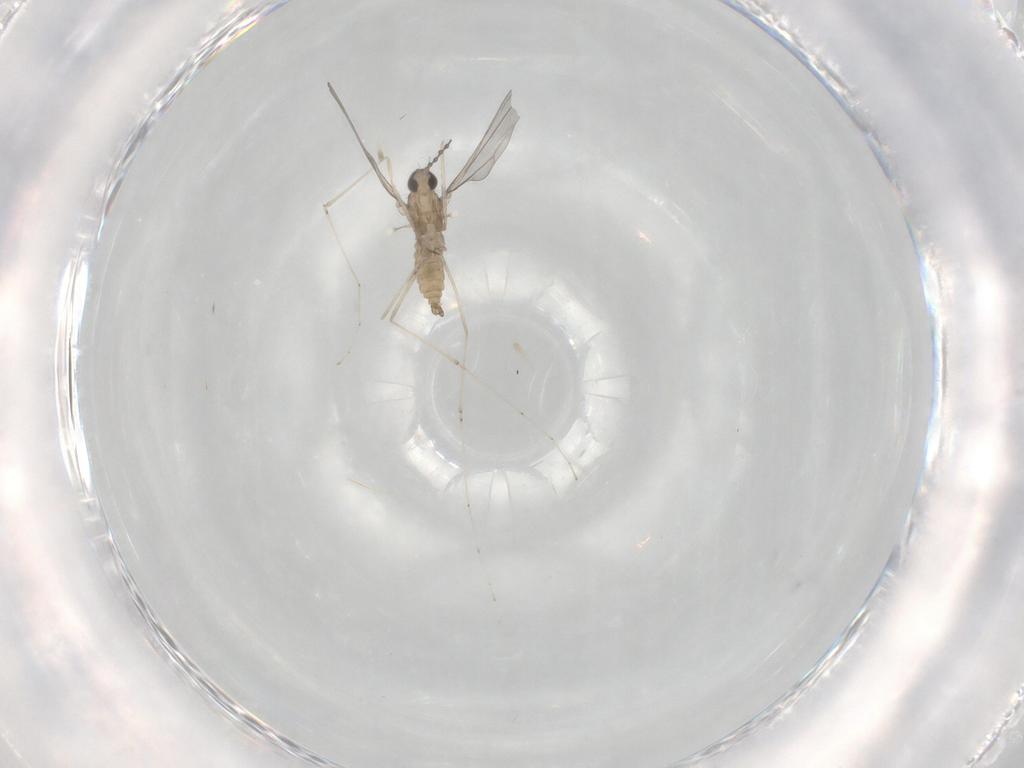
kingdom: Animalia
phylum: Arthropoda
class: Insecta
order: Diptera
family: Cecidomyiidae
